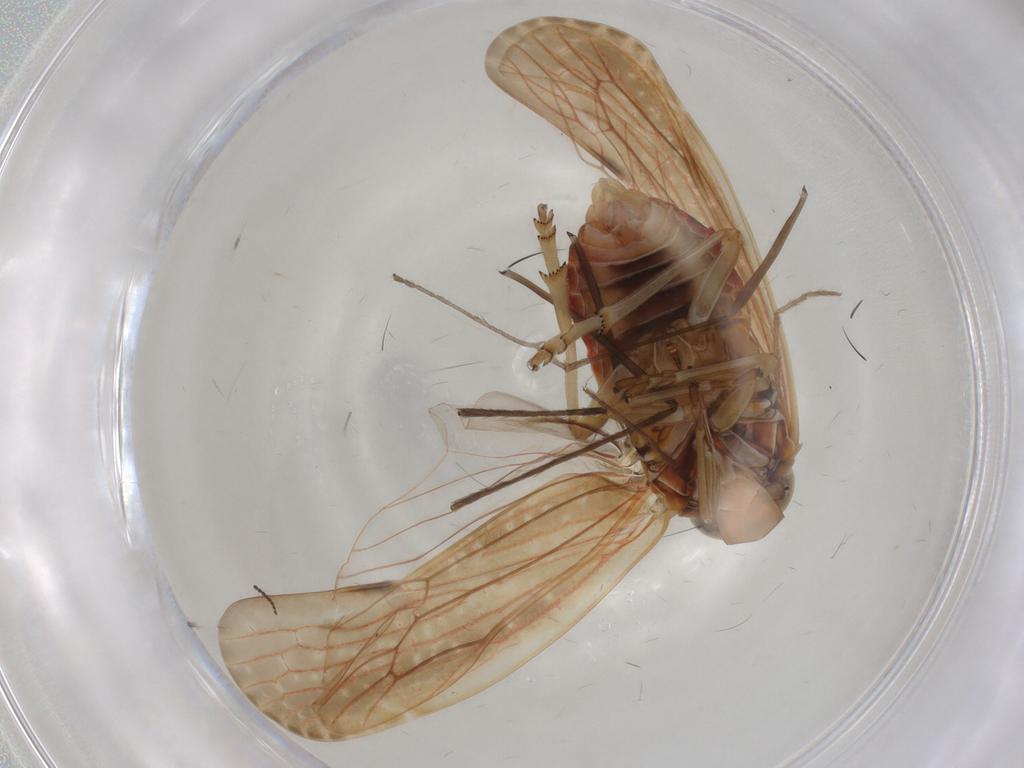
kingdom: Animalia
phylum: Arthropoda
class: Insecta
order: Hemiptera
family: Achilidae
